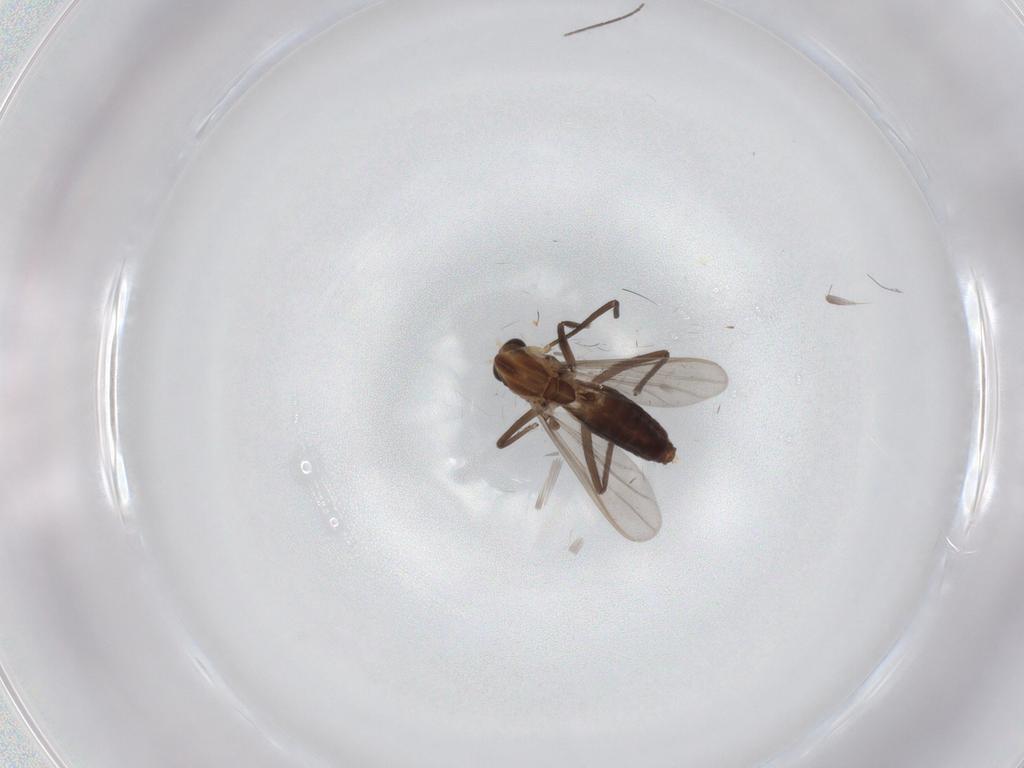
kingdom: Animalia
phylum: Arthropoda
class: Insecta
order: Diptera
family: Chironomidae
